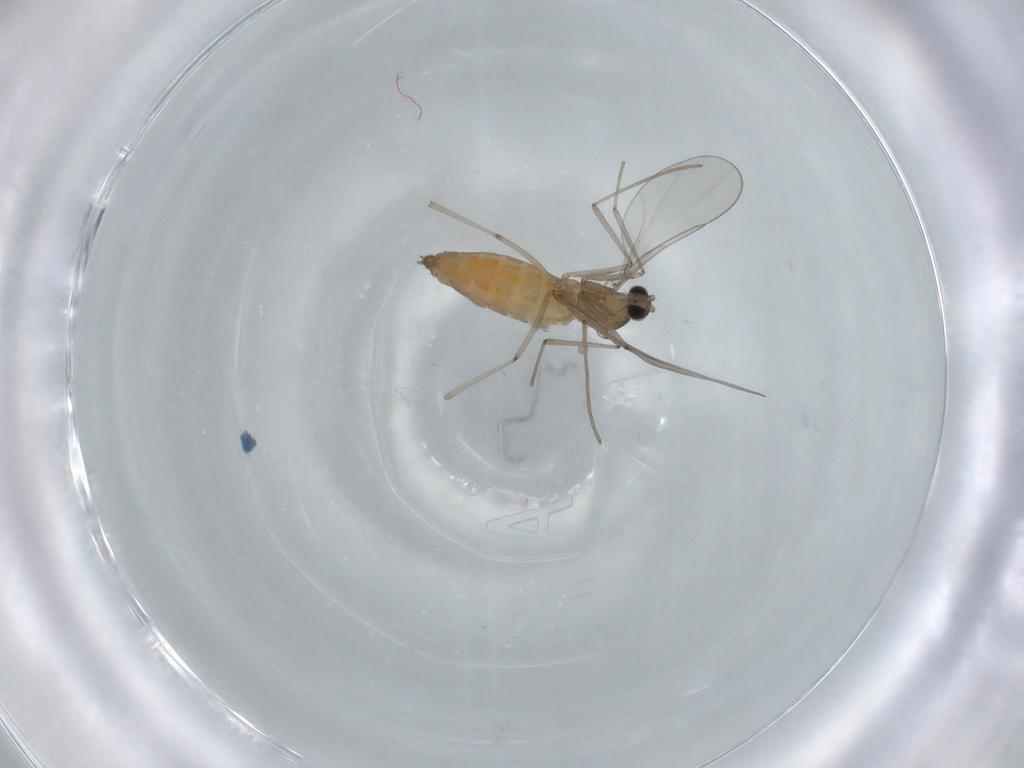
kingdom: Animalia
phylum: Arthropoda
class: Insecta
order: Diptera
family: Cecidomyiidae
